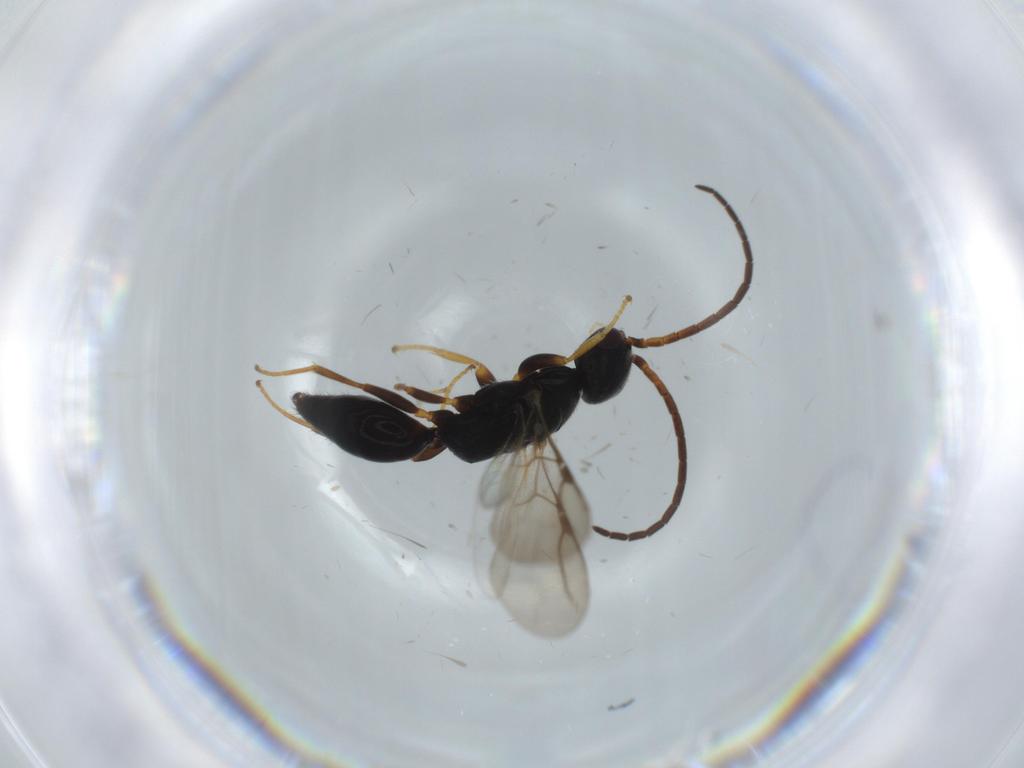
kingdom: Animalia
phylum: Arthropoda
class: Insecta
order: Hymenoptera
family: Bethylidae
